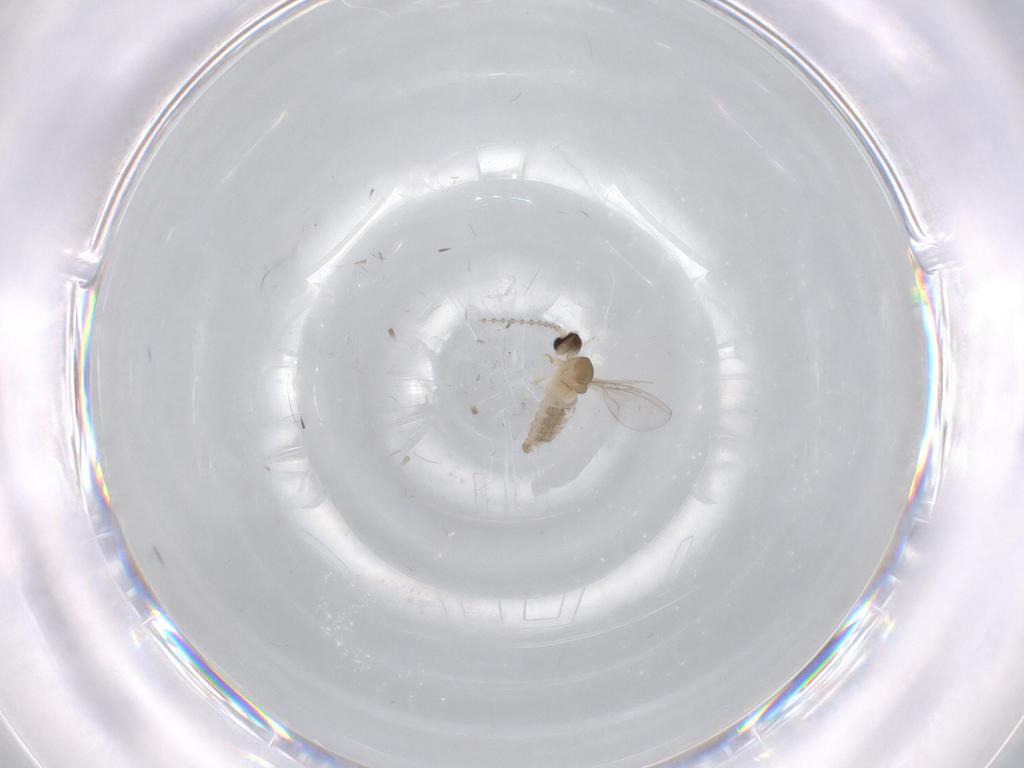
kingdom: Animalia
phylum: Arthropoda
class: Insecta
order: Diptera
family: Cecidomyiidae
